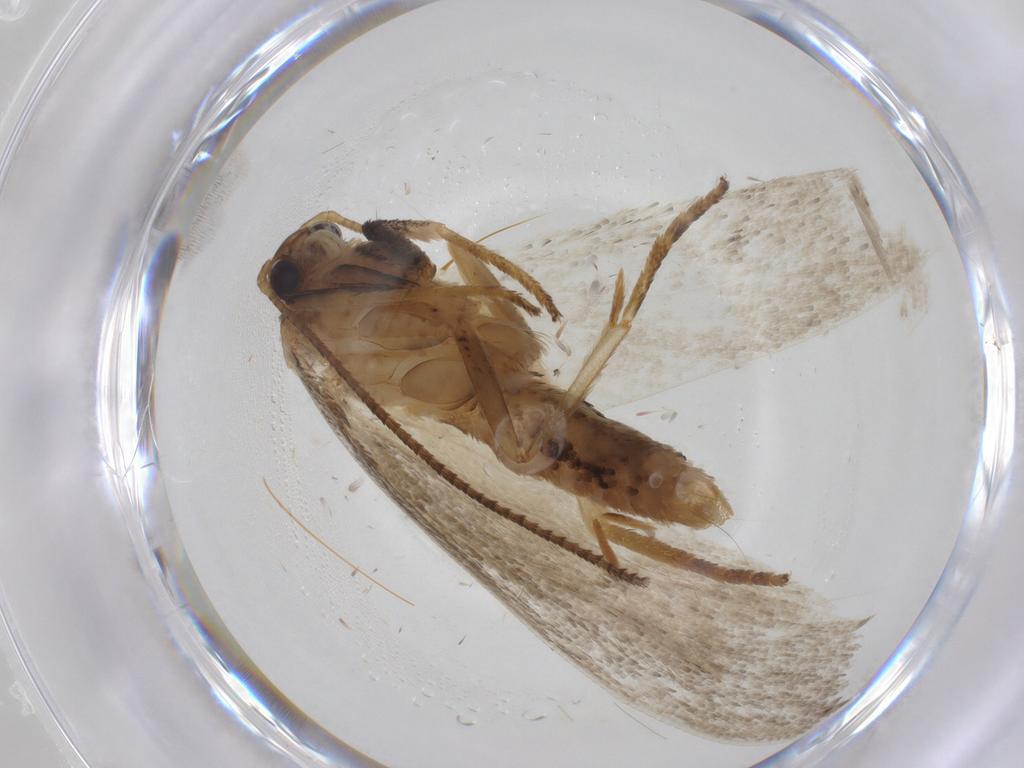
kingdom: Animalia
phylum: Arthropoda
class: Insecta
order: Lepidoptera
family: Depressariidae
